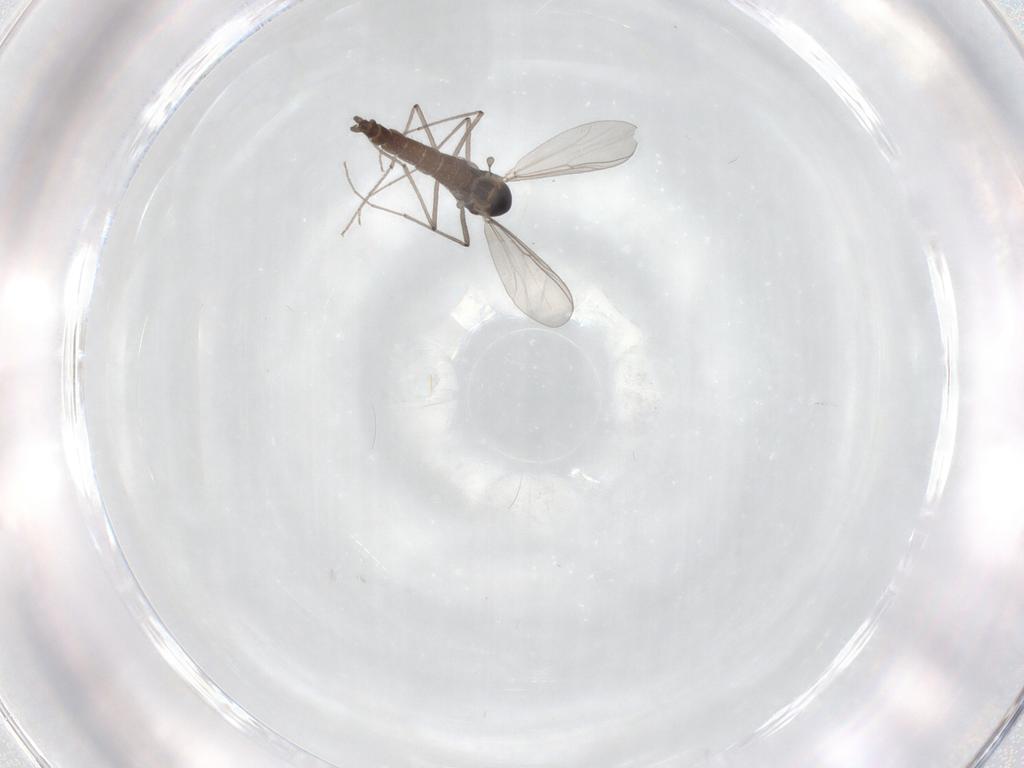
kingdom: Animalia
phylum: Arthropoda
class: Insecta
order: Diptera
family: Chironomidae
